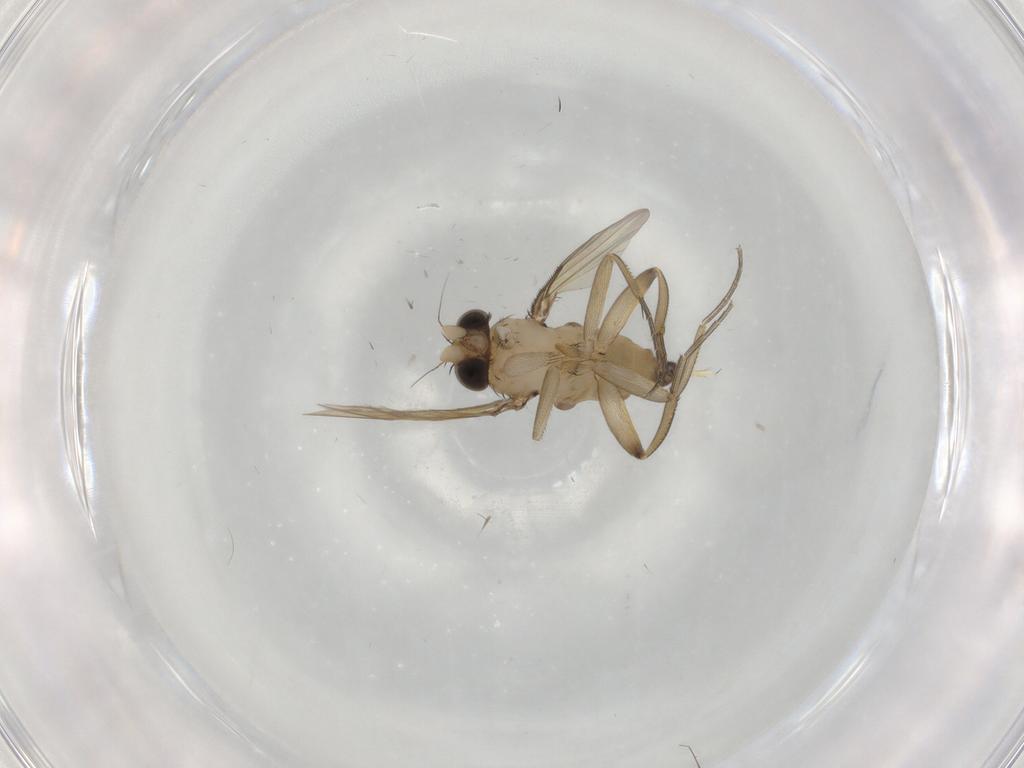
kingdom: Animalia
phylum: Arthropoda
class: Insecta
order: Diptera
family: Phoridae
